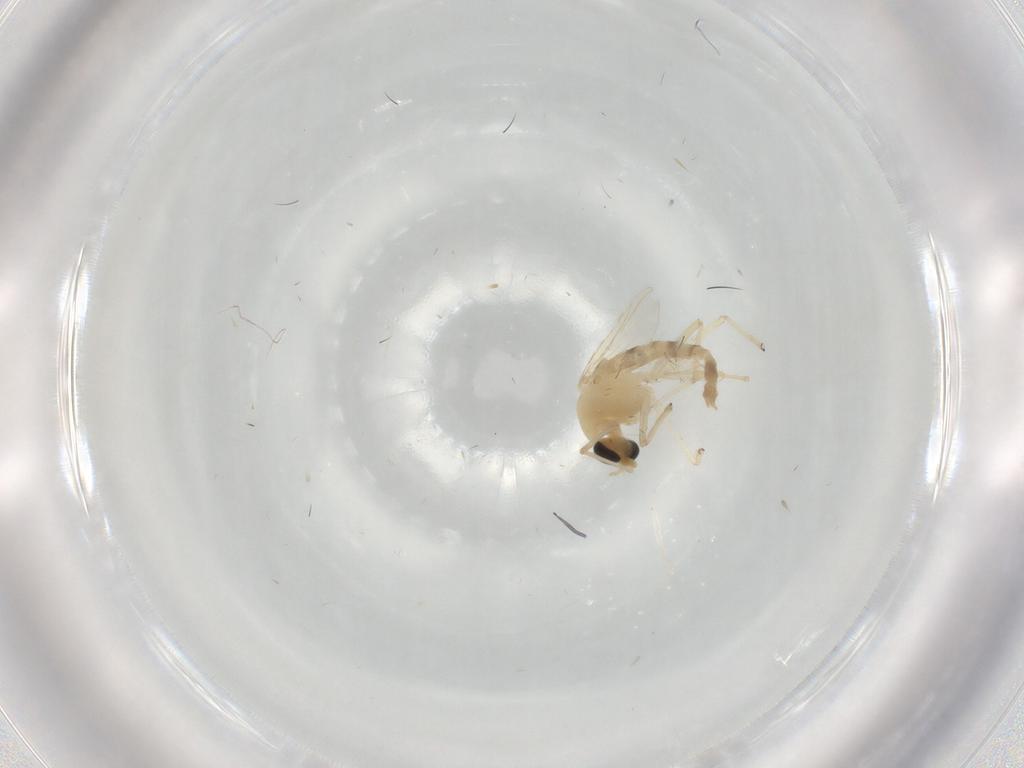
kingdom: Animalia
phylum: Arthropoda
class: Insecta
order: Diptera
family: Chironomidae
